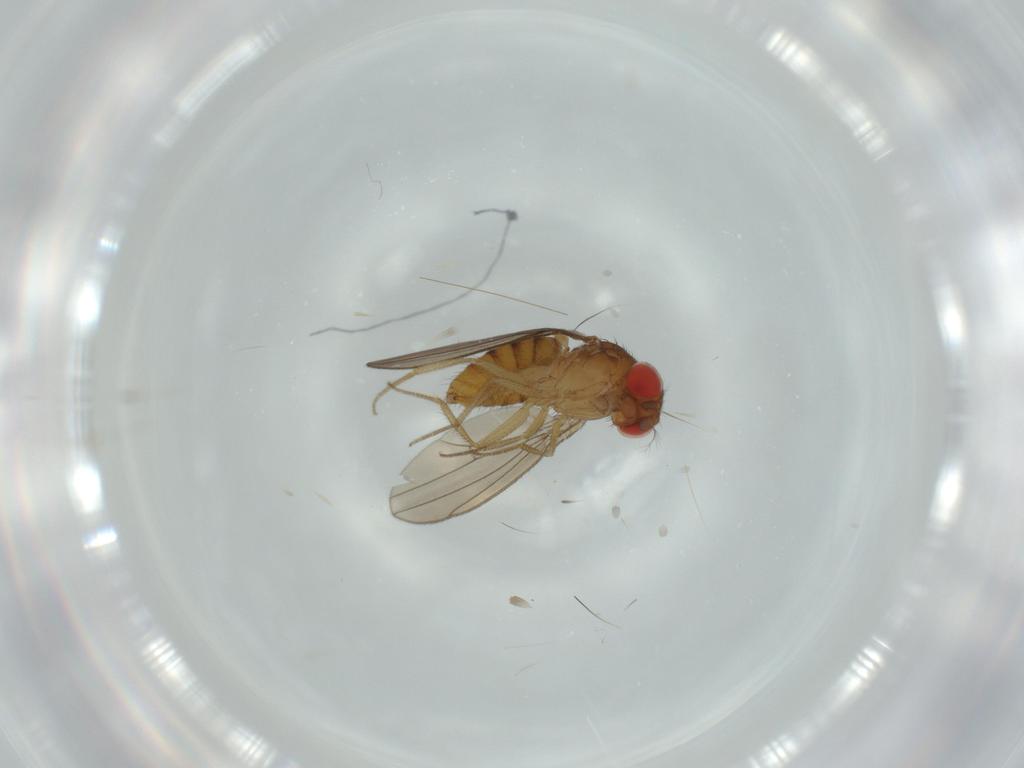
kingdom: Animalia
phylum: Arthropoda
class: Insecta
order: Diptera
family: Drosophilidae
